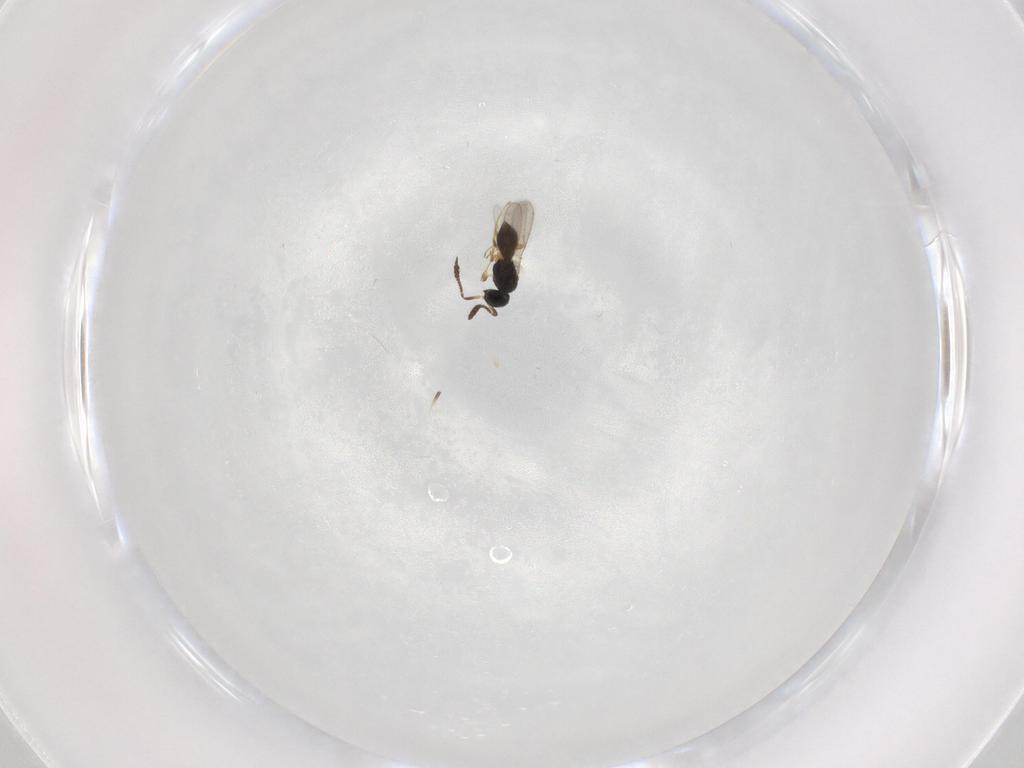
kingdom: Animalia
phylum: Arthropoda
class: Insecta
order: Hymenoptera
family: Scelionidae
